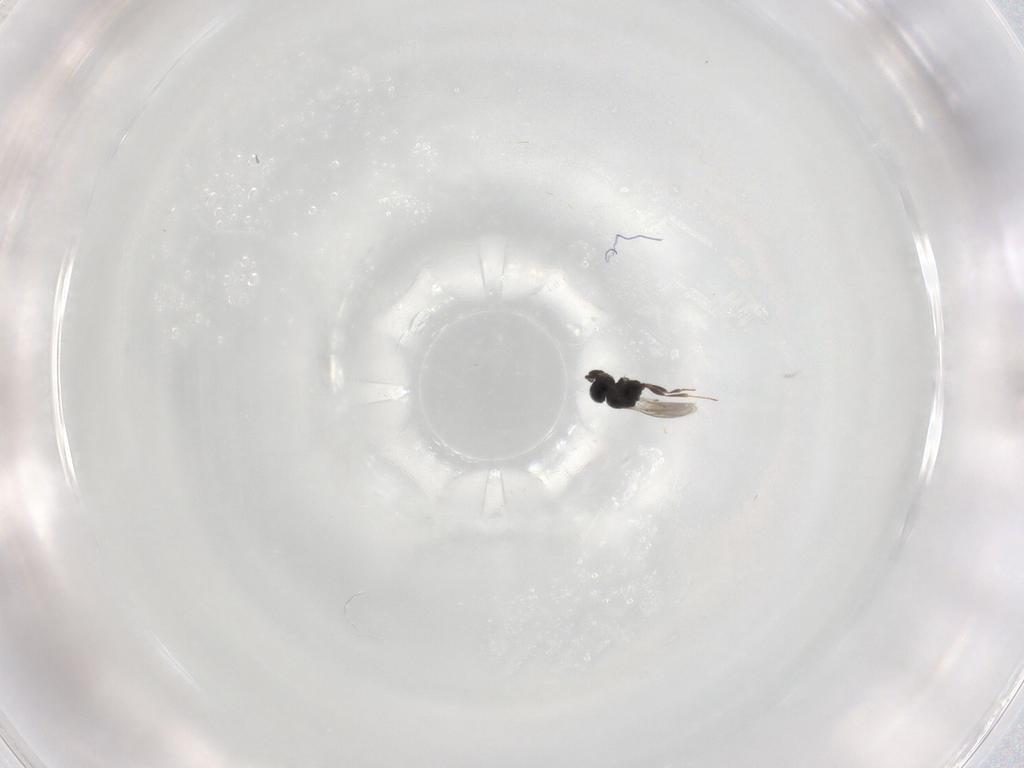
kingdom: Animalia
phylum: Arthropoda
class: Insecta
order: Hymenoptera
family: Scelionidae
